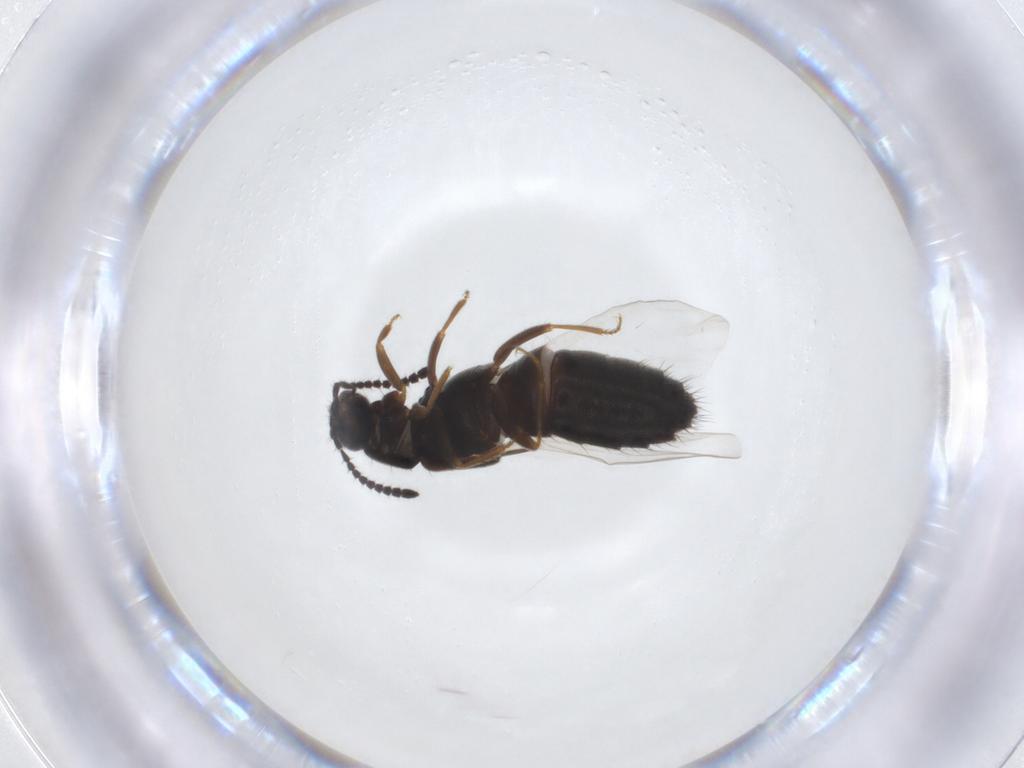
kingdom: Animalia
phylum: Arthropoda
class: Insecta
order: Coleoptera
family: Staphylinidae
